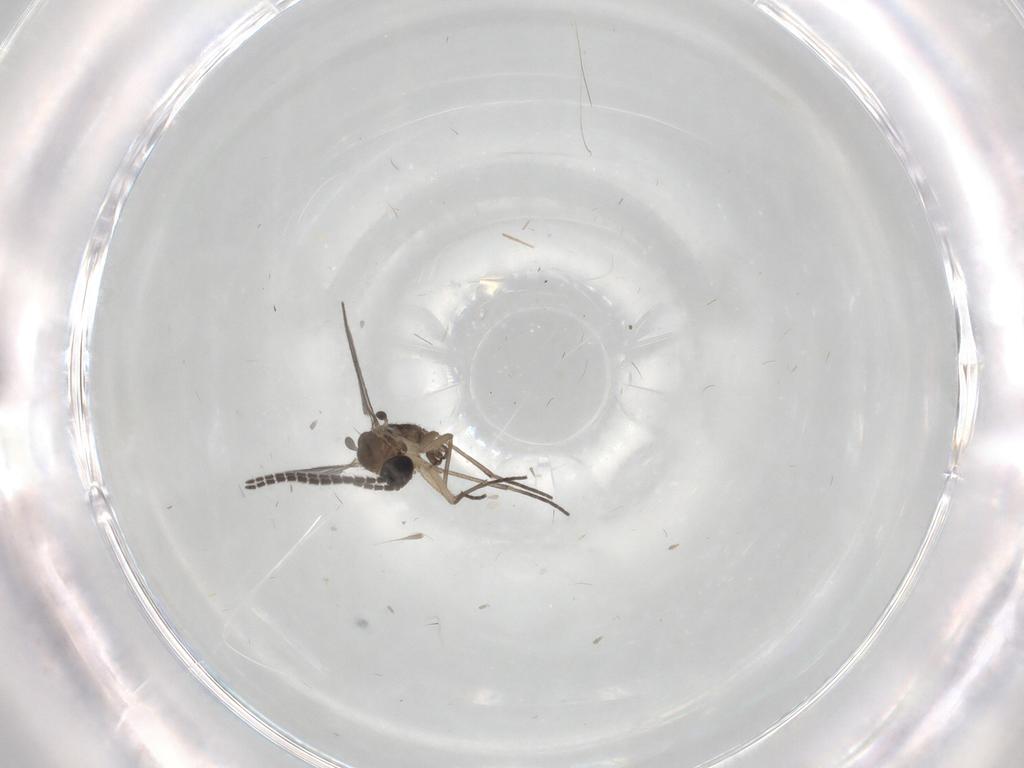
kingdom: Animalia
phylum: Arthropoda
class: Insecta
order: Diptera
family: Sciaridae
